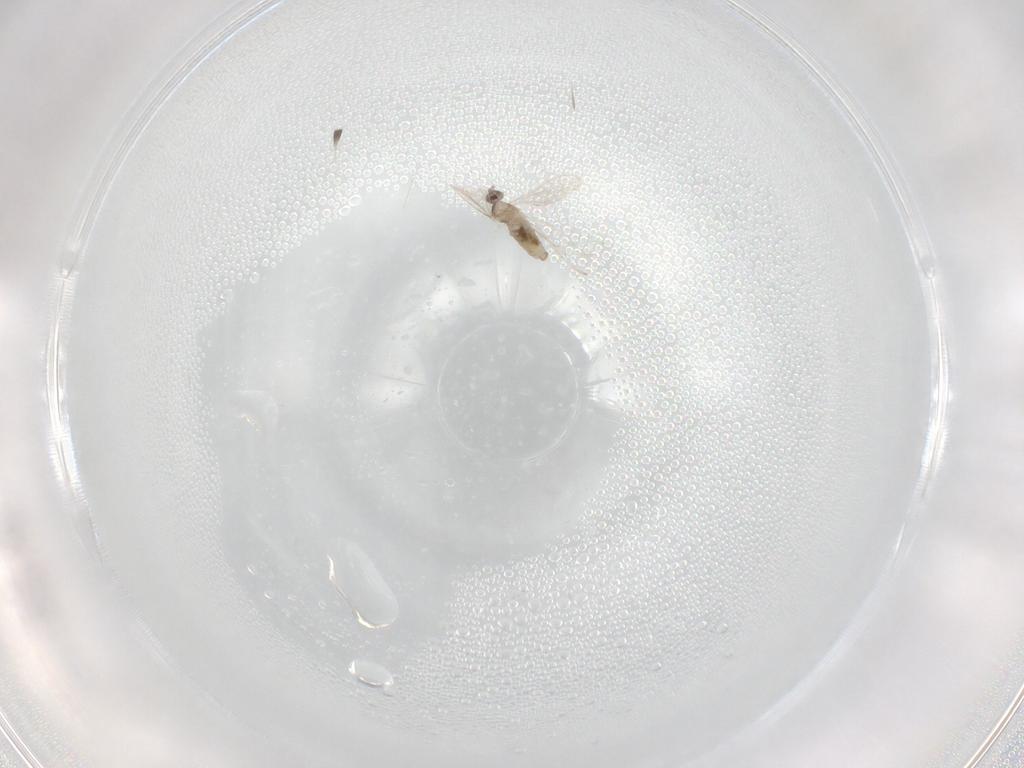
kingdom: Animalia
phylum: Arthropoda
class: Insecta
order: Diptera
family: Cecidomyiidae
